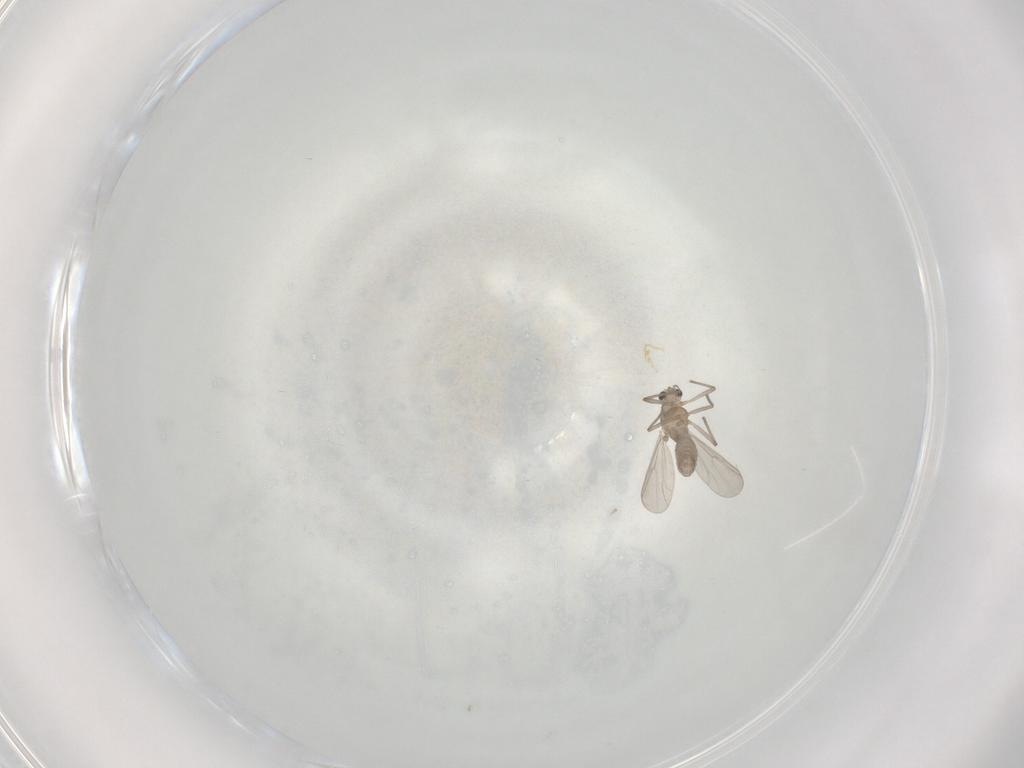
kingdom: Animalia
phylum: Arthropoda
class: Insecta
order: Diptera
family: Chironomidae
